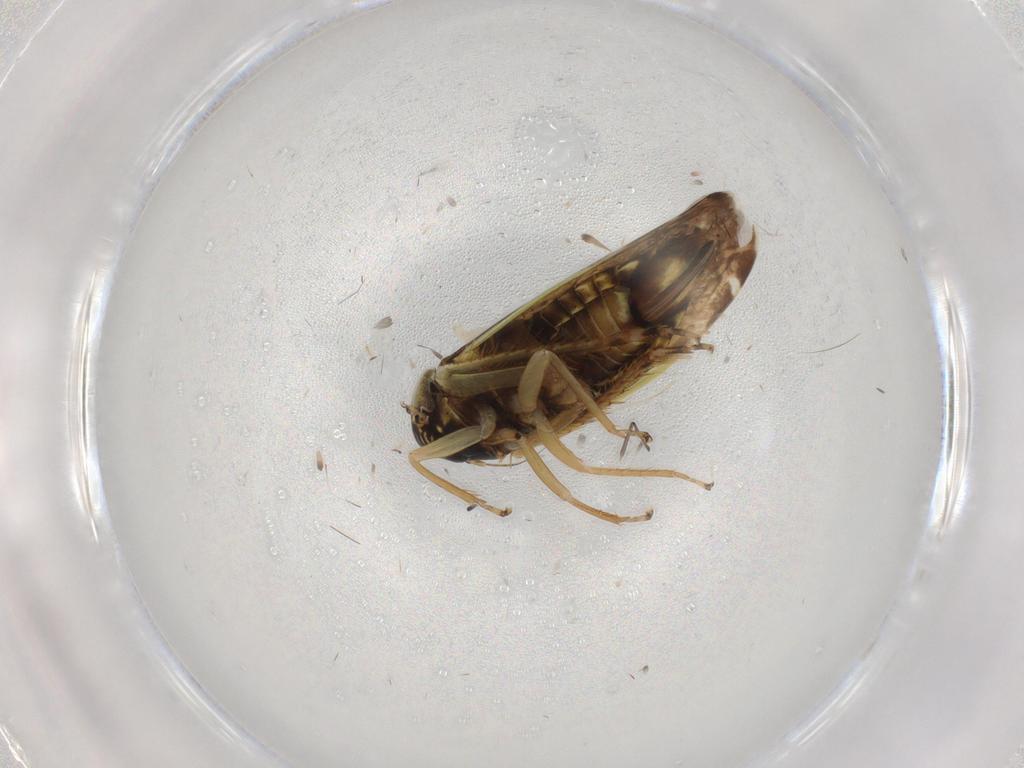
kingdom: Animalia
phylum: Arthropoda
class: Insecta
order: Hemiptera
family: Cicadellidae
